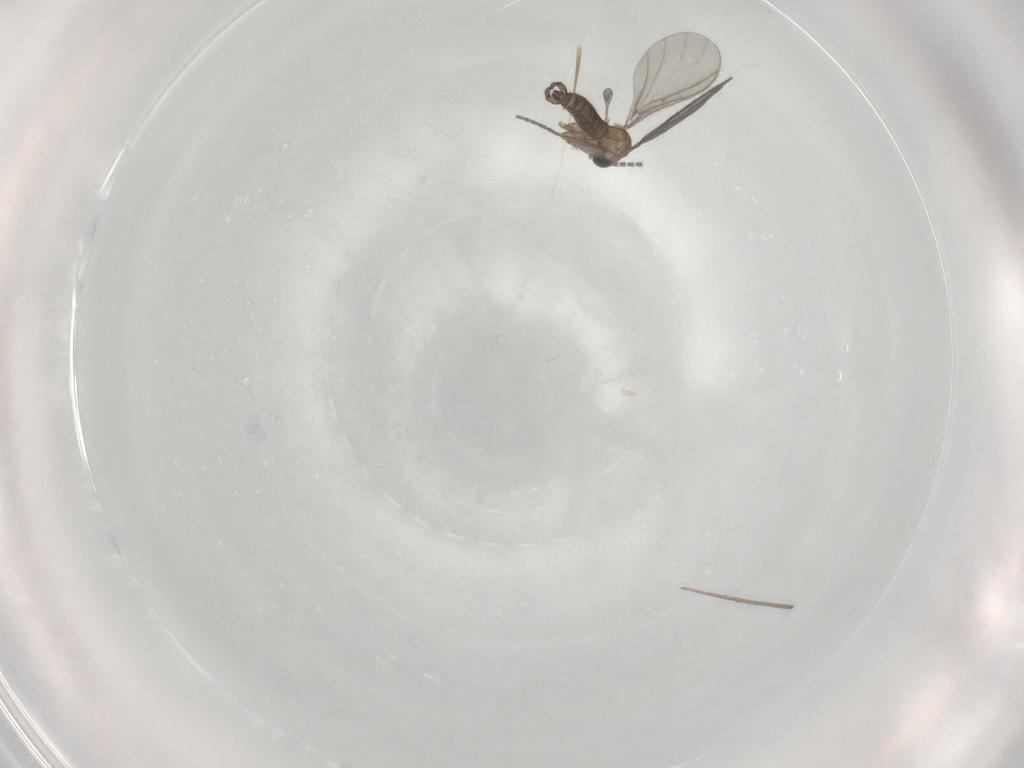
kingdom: Animalia
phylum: Arthropoda
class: Insecta
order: Diptera
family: Sciaridae
